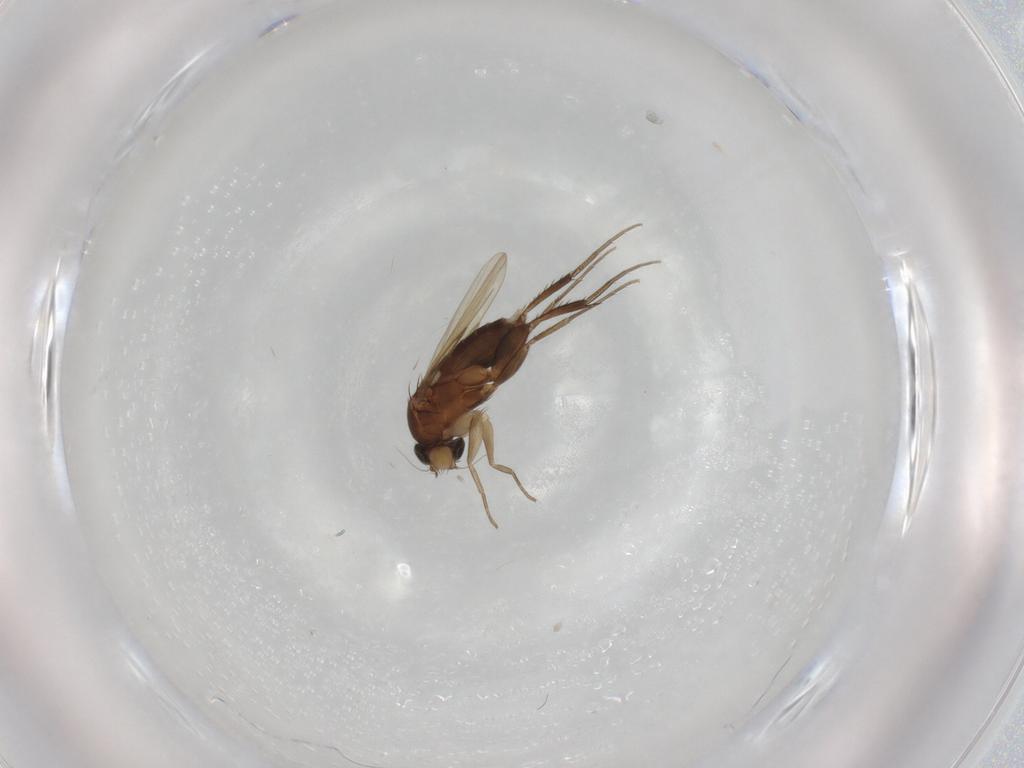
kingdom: Animalia
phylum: Arthropoda
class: Insecta
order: Diptera
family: Phoridae
